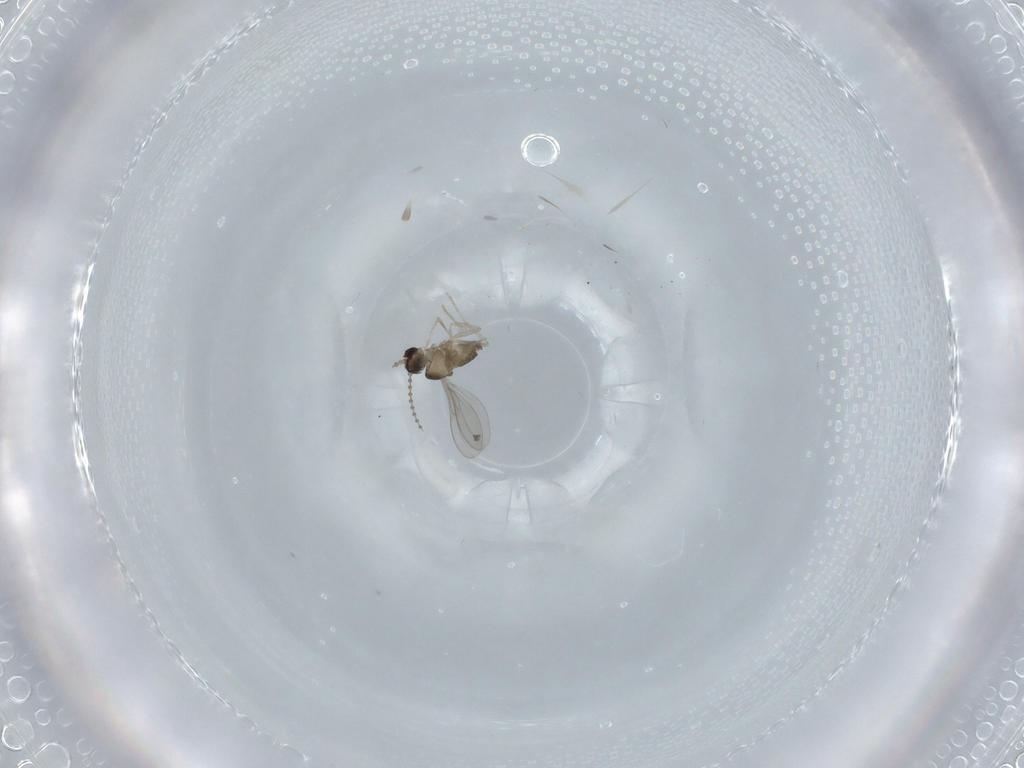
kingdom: Animalia
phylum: Arthropoda
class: Insecta
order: Diptera
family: Cecidomyiidae
